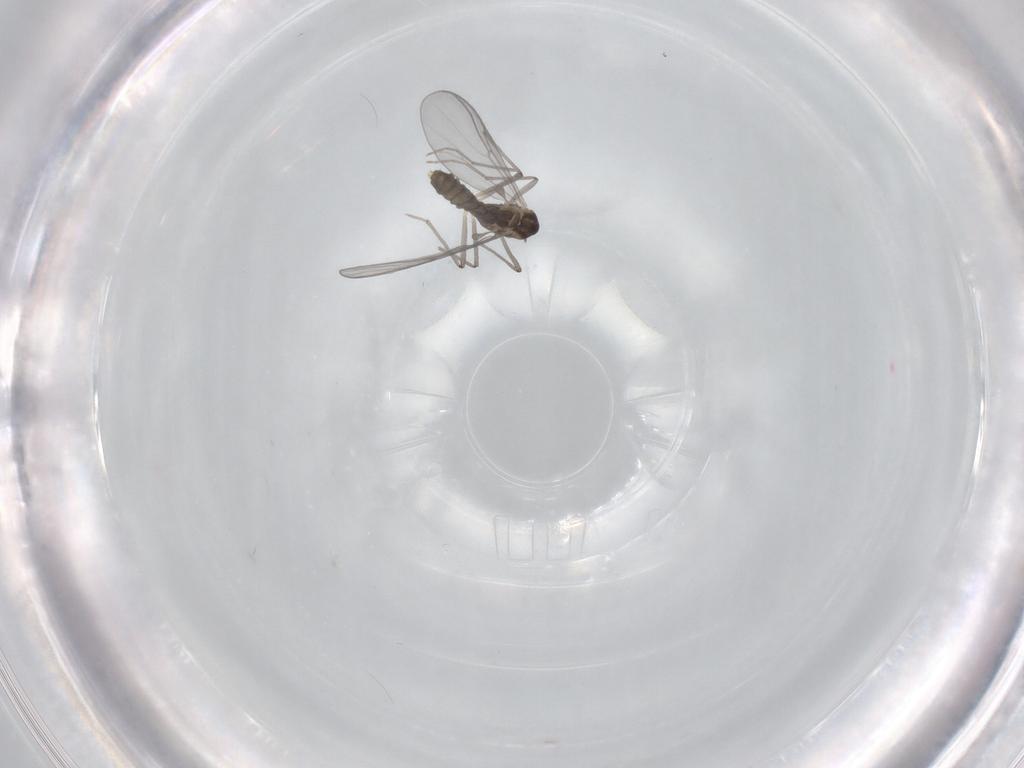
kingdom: Animalia
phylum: Arthropoda
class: Insecta
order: Diptera
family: Chironomidae
